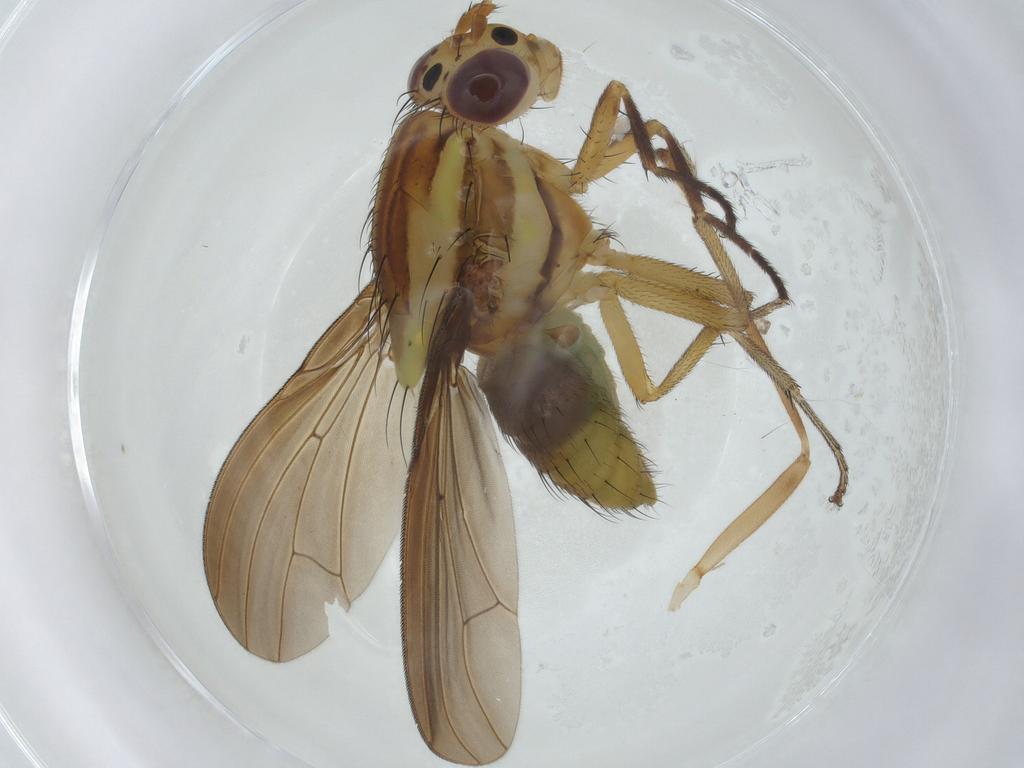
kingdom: Animalia
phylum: Arthropoda
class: Insecta
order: Diptera
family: Lauxaniidae
